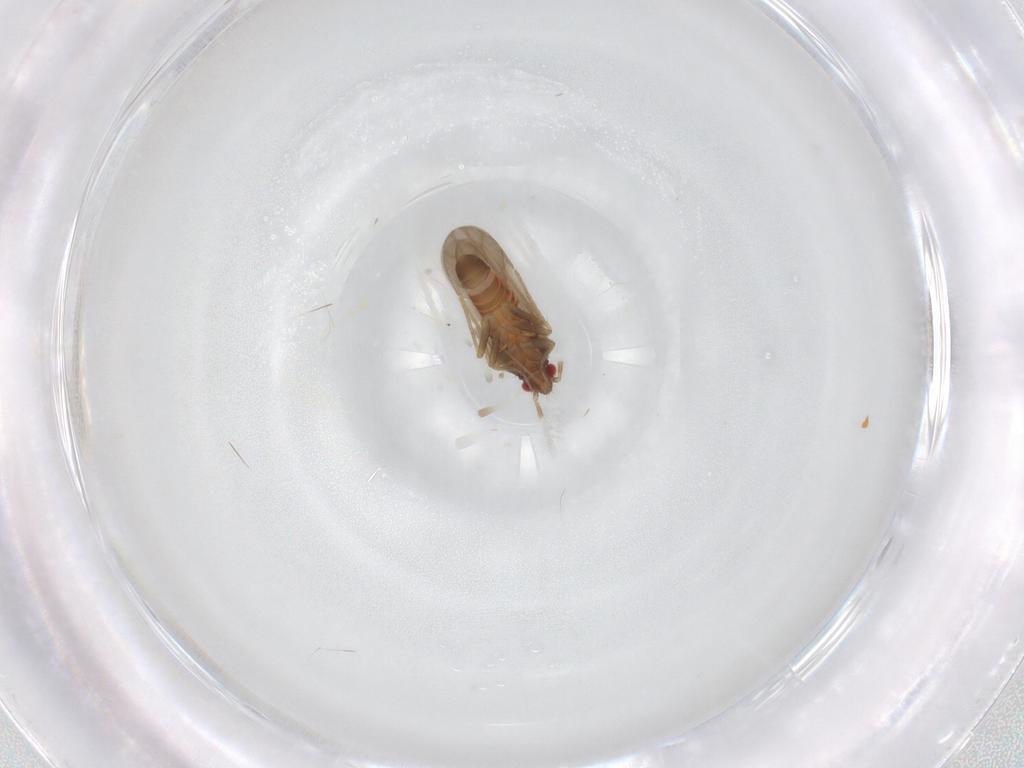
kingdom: Animalia
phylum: Arthropoda
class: Insecta
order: Hemiptera
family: Ceratocombidae
